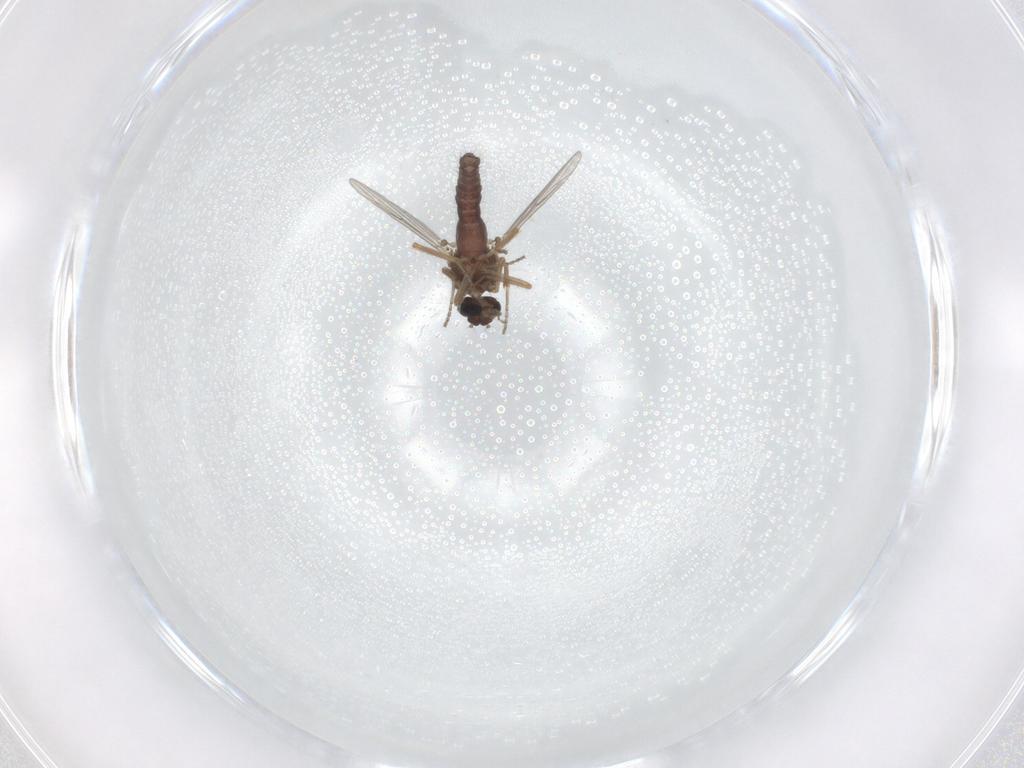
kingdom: Animalia
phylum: Arthropoda
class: Insecta
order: Diptera
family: Ceratopogonidae
